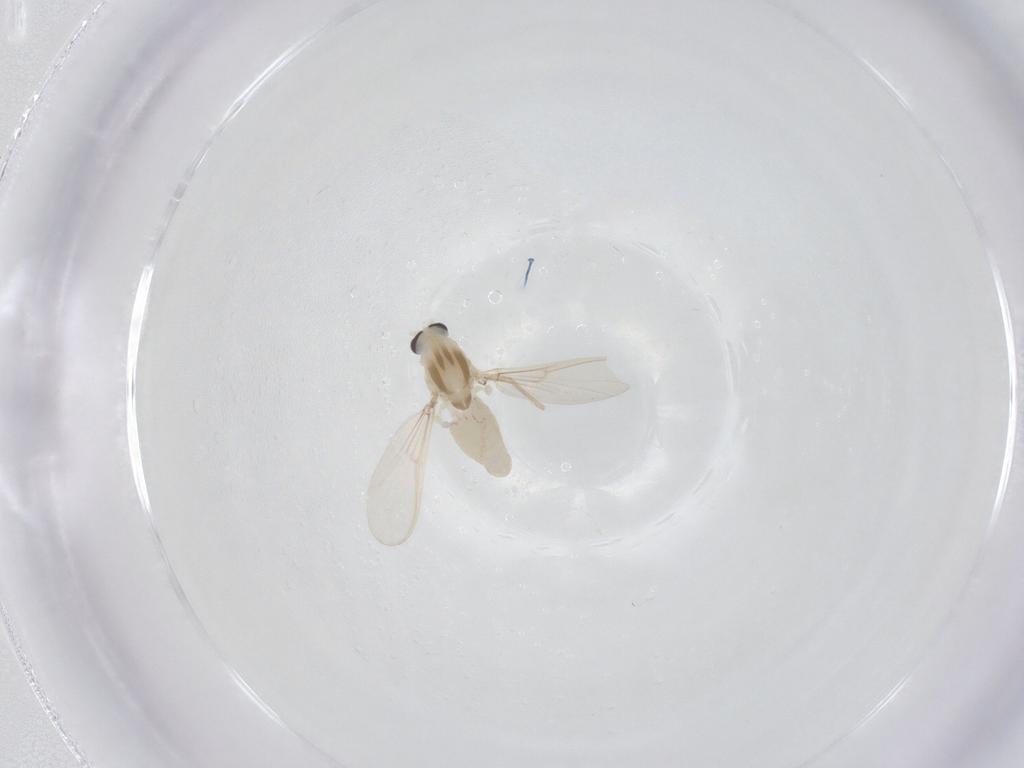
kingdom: Animalia
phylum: Arthropoda
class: Insecta
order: Diptera
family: Chironomidae
